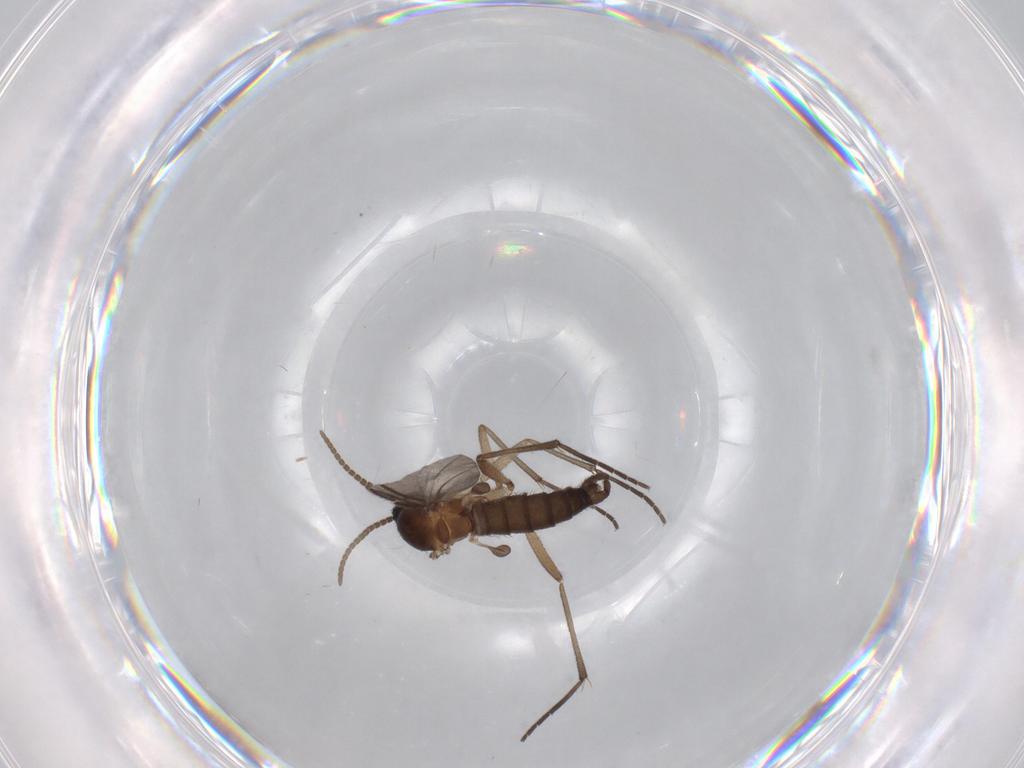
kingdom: Animalia
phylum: Arthropoda
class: Insecta
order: Diptera
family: Cecidomyiidae
